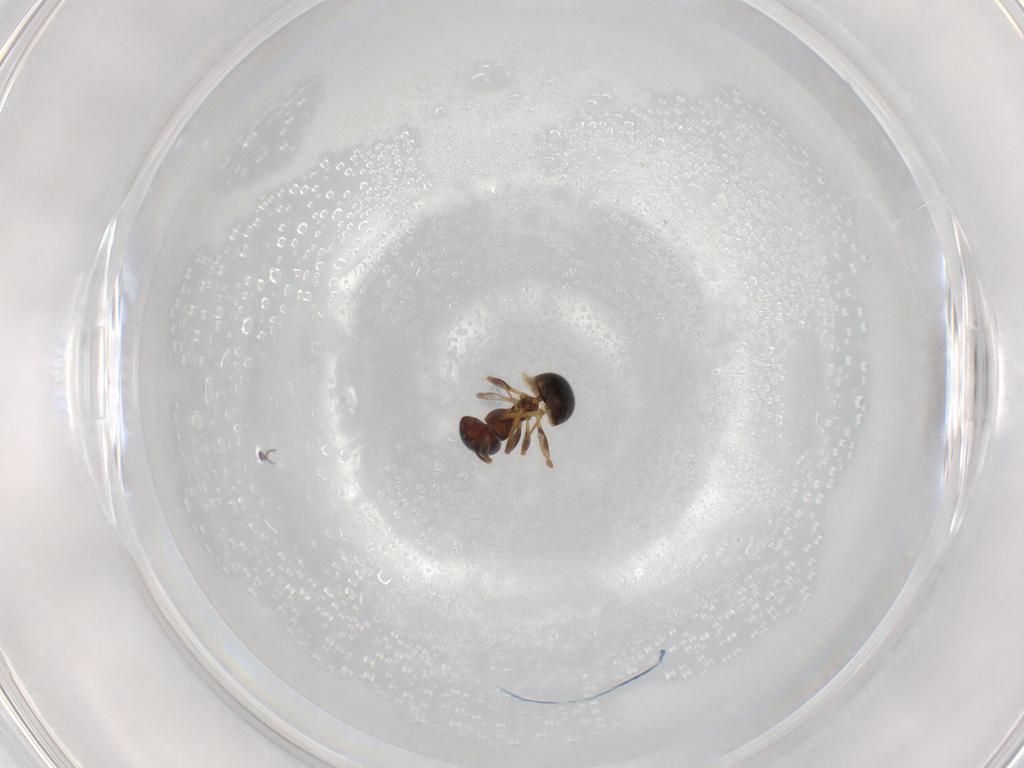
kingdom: Animalia
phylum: Arthropoda
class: Insecta
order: Hymenoptera
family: Formicidae
